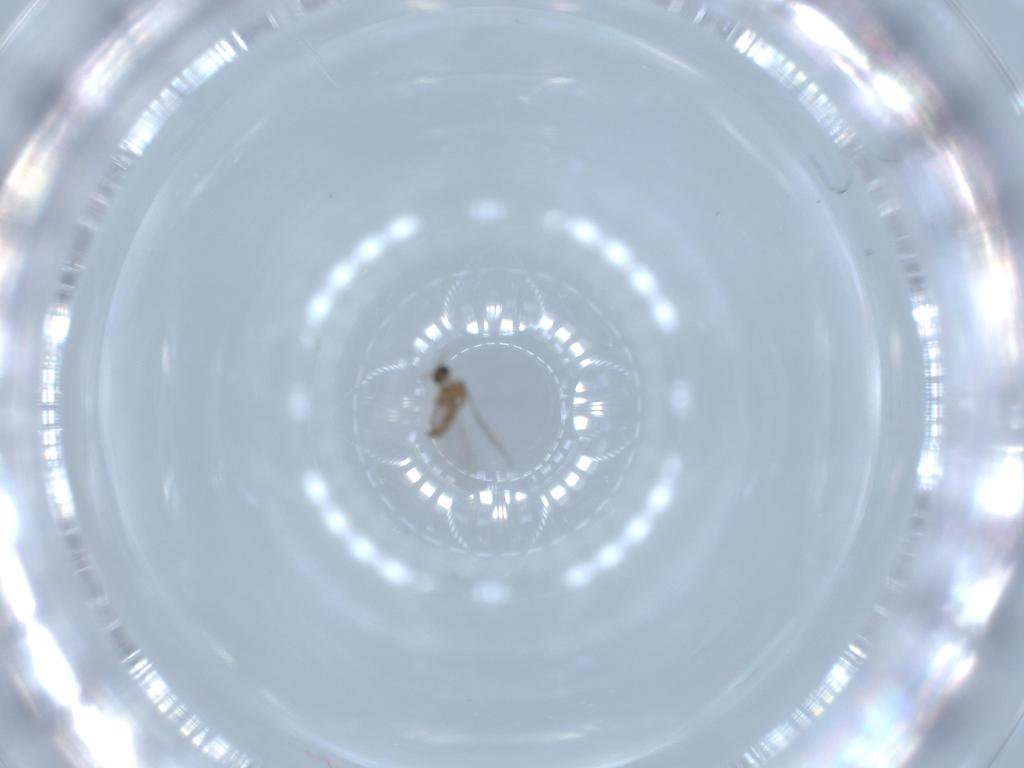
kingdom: Animalia
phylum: Arthropoda
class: Insecta
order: Diptera
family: Cecidomyiidae
